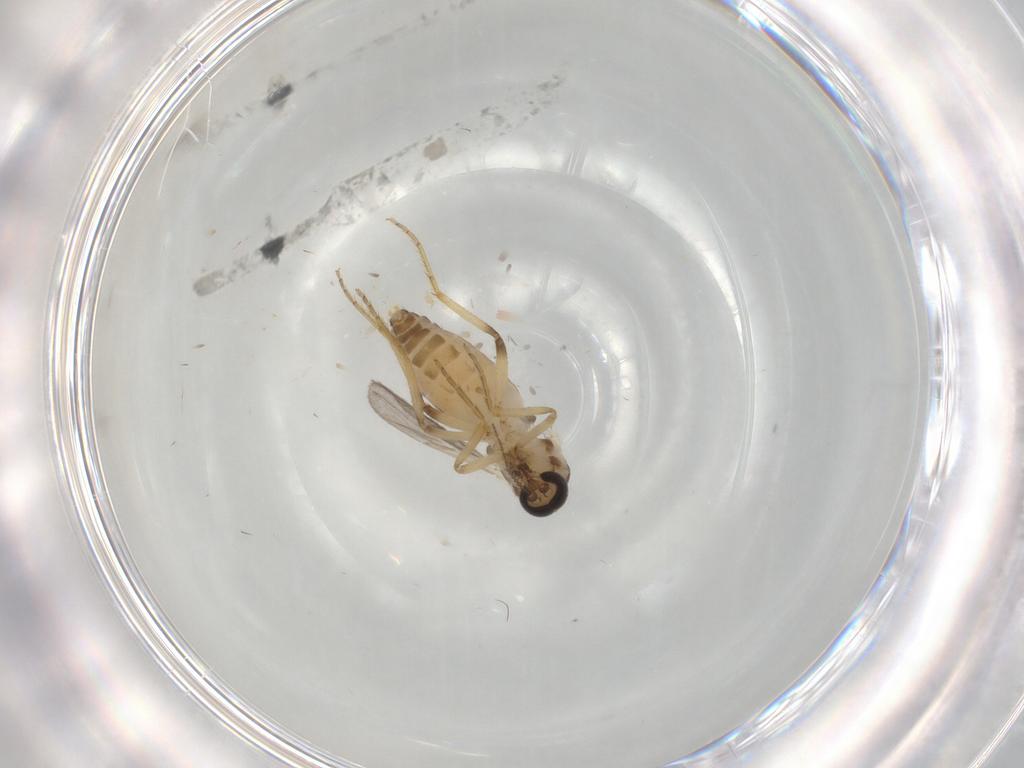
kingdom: Animalia
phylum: Arthropoda
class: Insecta
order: Diptera
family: Ceratopogonidae
